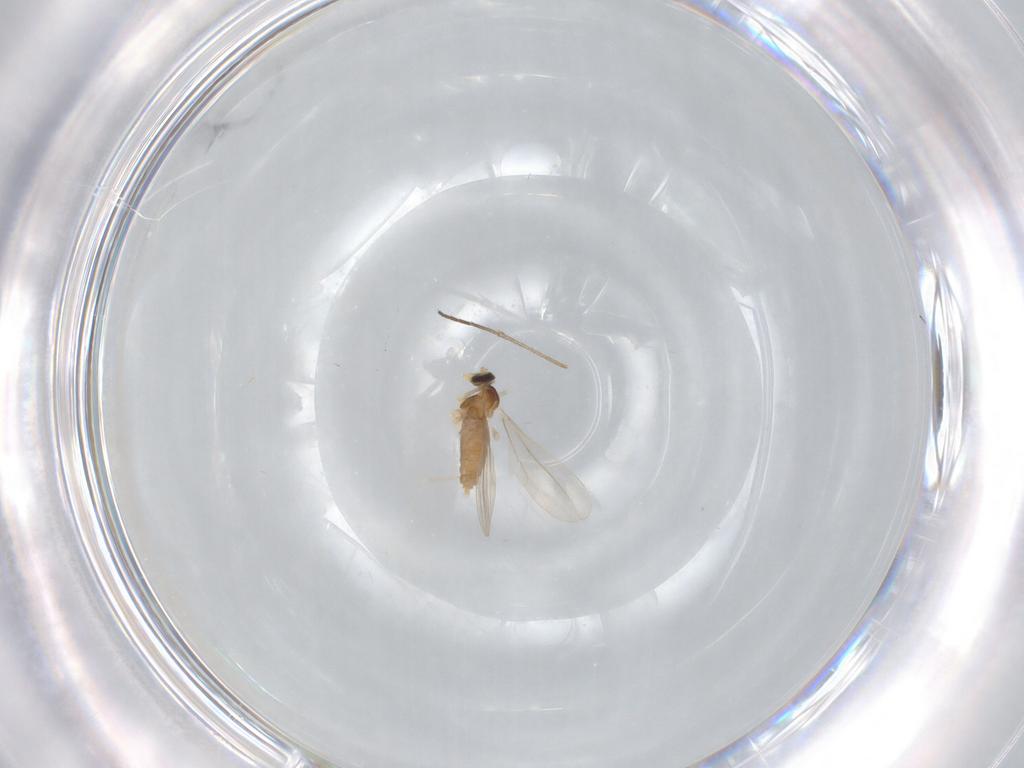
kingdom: Animalia
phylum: Arthropoda
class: Insecta
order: Diptera
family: Cecidomyiidae
